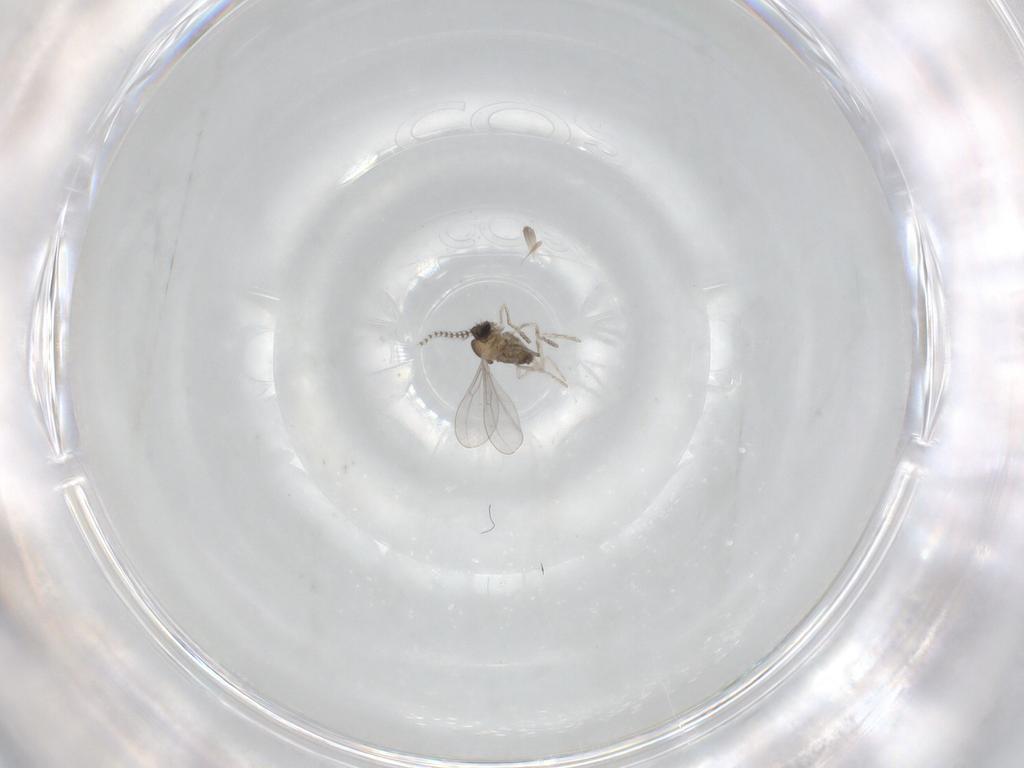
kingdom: Animalia
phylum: Arthropoda
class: Insecta
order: Diptera
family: Cecidomyiidae
